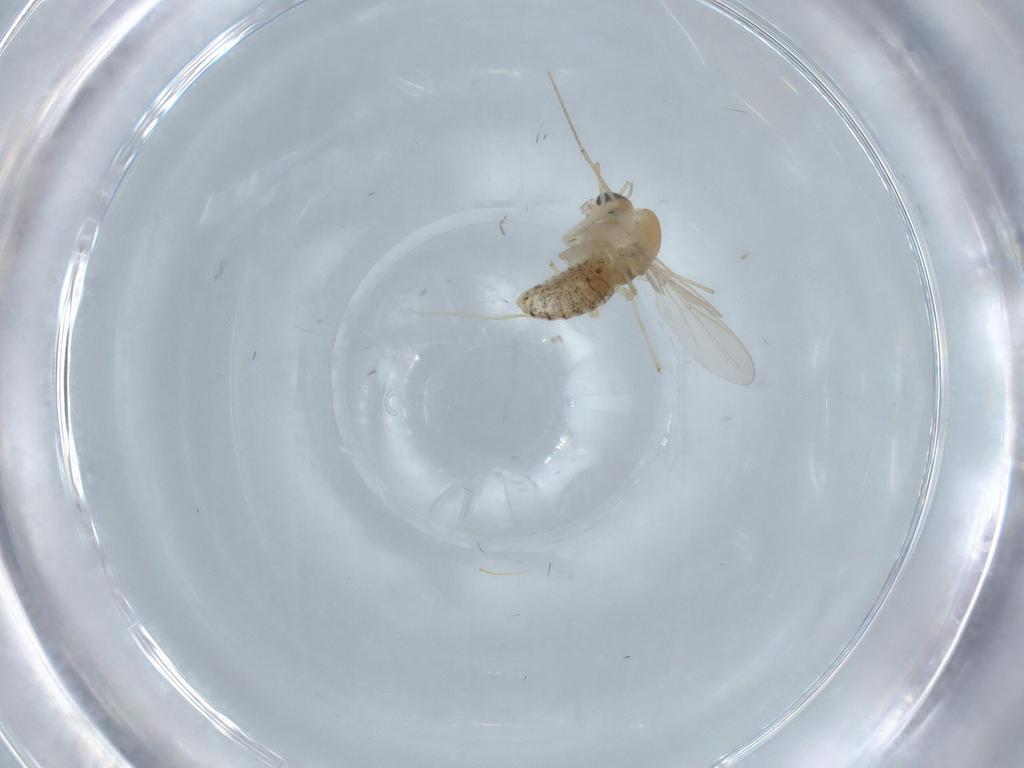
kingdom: Animalia
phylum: Arthropoda
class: Insecta
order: Diptera
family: Chironomidae
